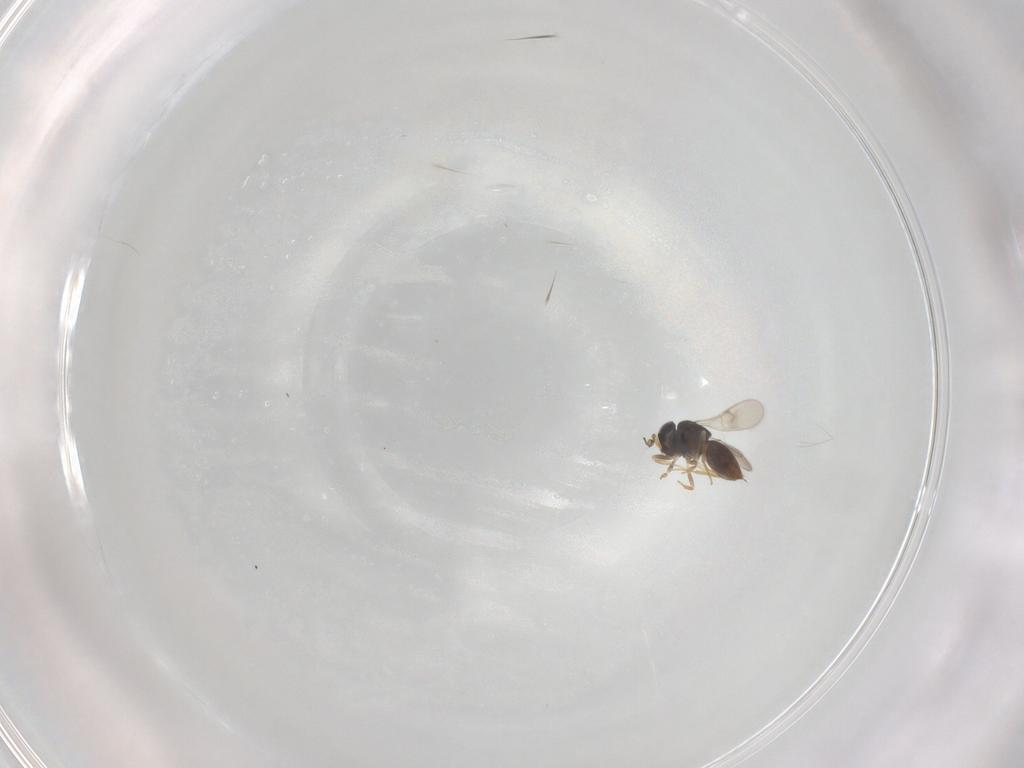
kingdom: Animalia
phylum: Arthropoda
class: Insecta
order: Hymenoptera
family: Scelionidae
